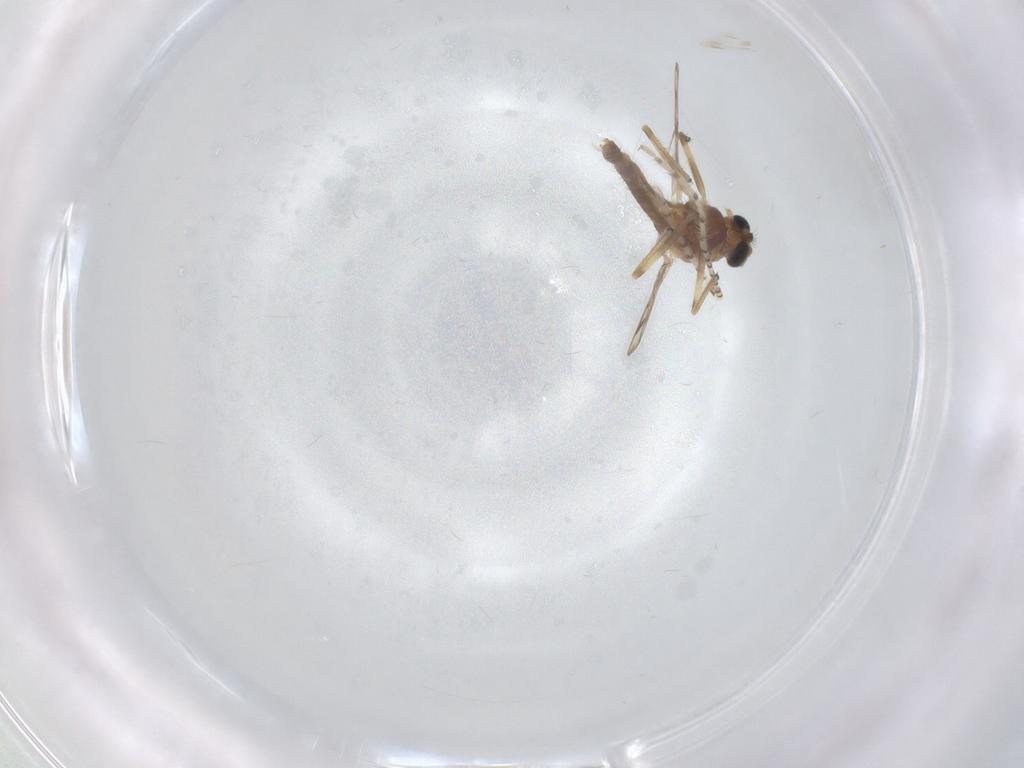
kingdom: Animalia
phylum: Arthropoda
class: Insecta
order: Diptera
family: Chironomidae
